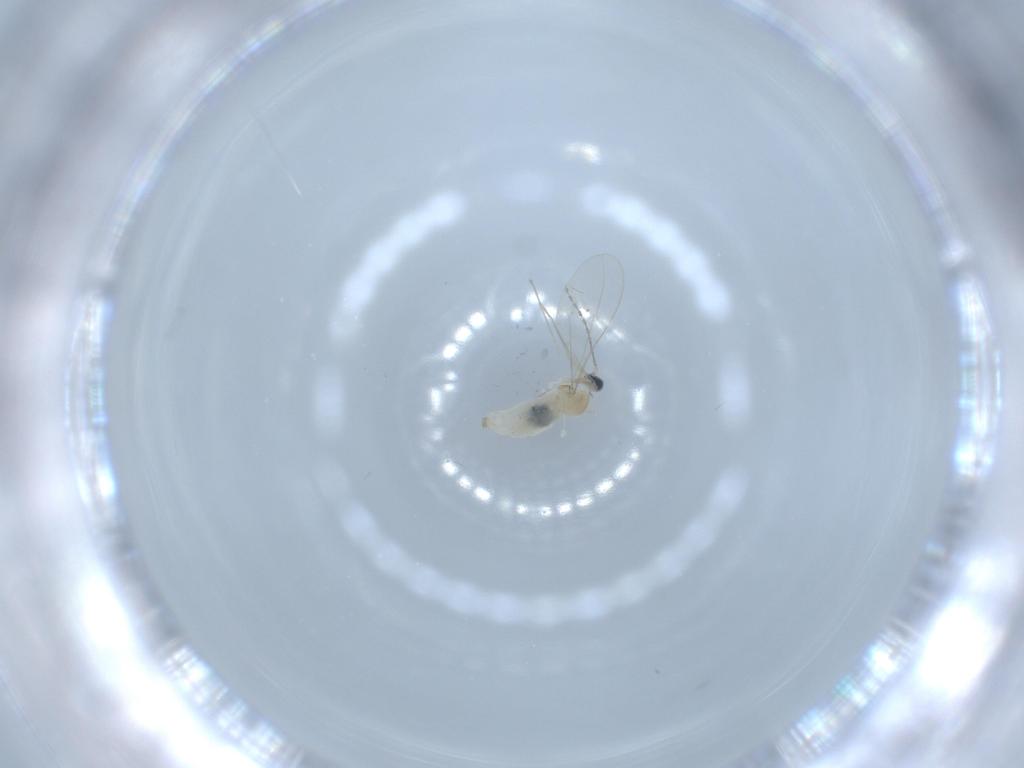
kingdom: Animalia
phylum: Arthropoda
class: Insecta
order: Diptera
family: Cecidomyiidae
